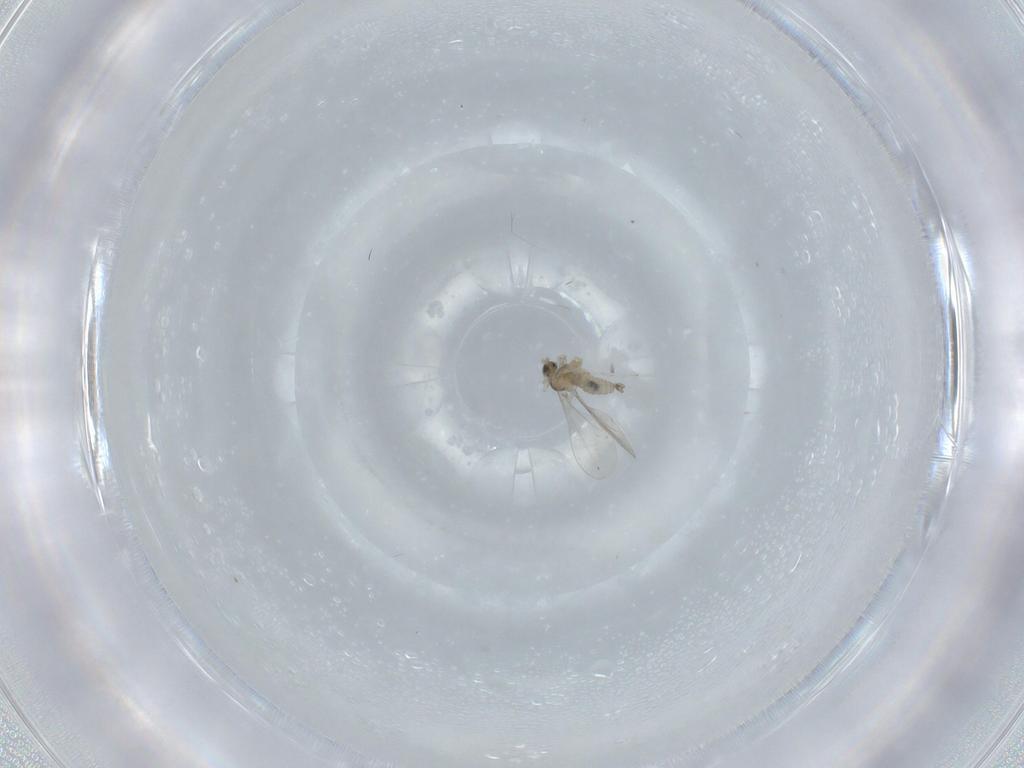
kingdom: Animalia
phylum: Arthropoda
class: Insecta
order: Diptera
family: Cecidomyiidae
